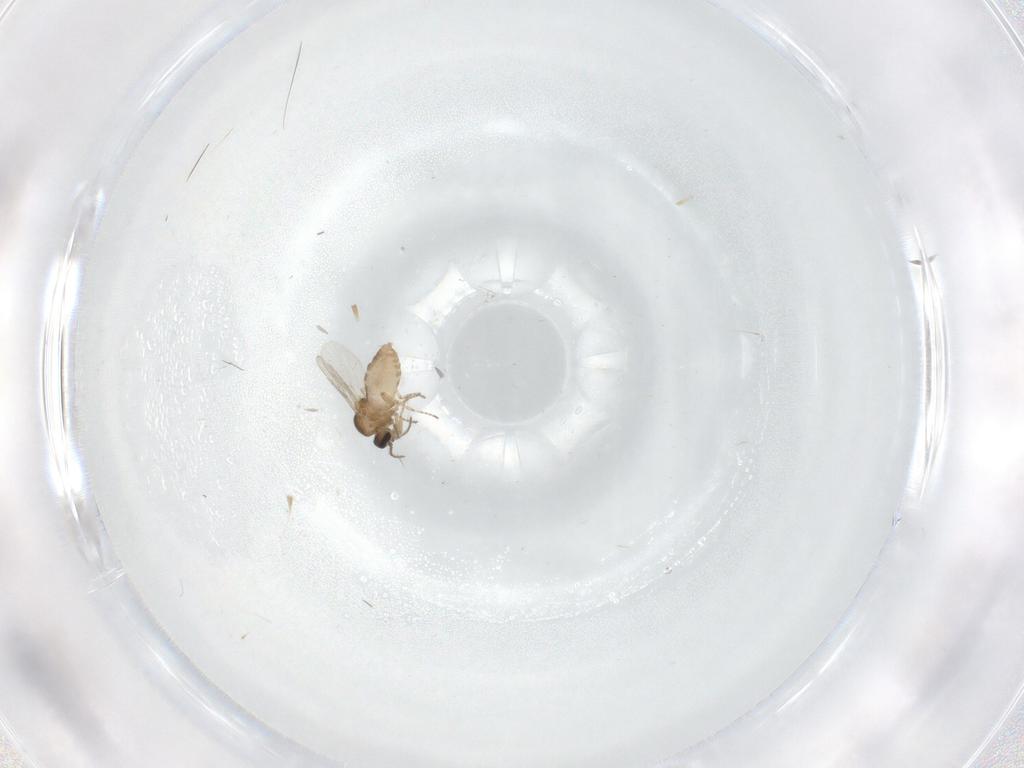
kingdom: Animalia
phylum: Arthropoda
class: Insecta
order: Diptera
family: Ceratopogonidae
